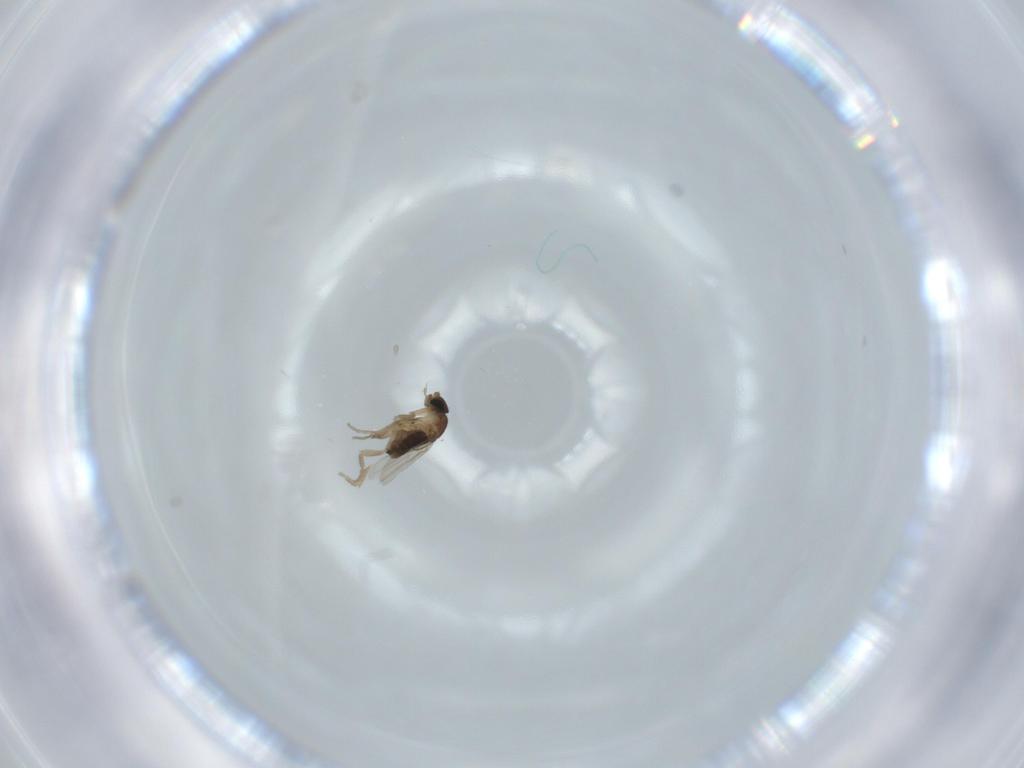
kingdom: Animalia
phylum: Arthropoda
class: Insecta
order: Diptera
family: Phoridae
